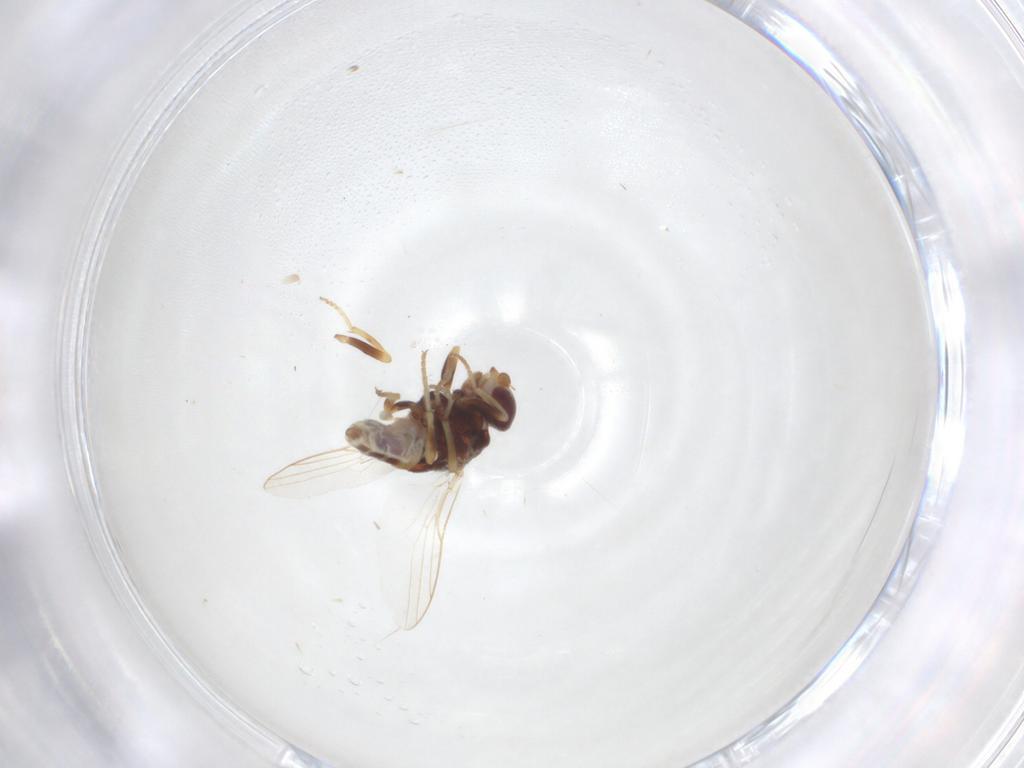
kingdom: Animalia
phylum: Arthropoda
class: Insecta
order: Diptera
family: Chloropidae
